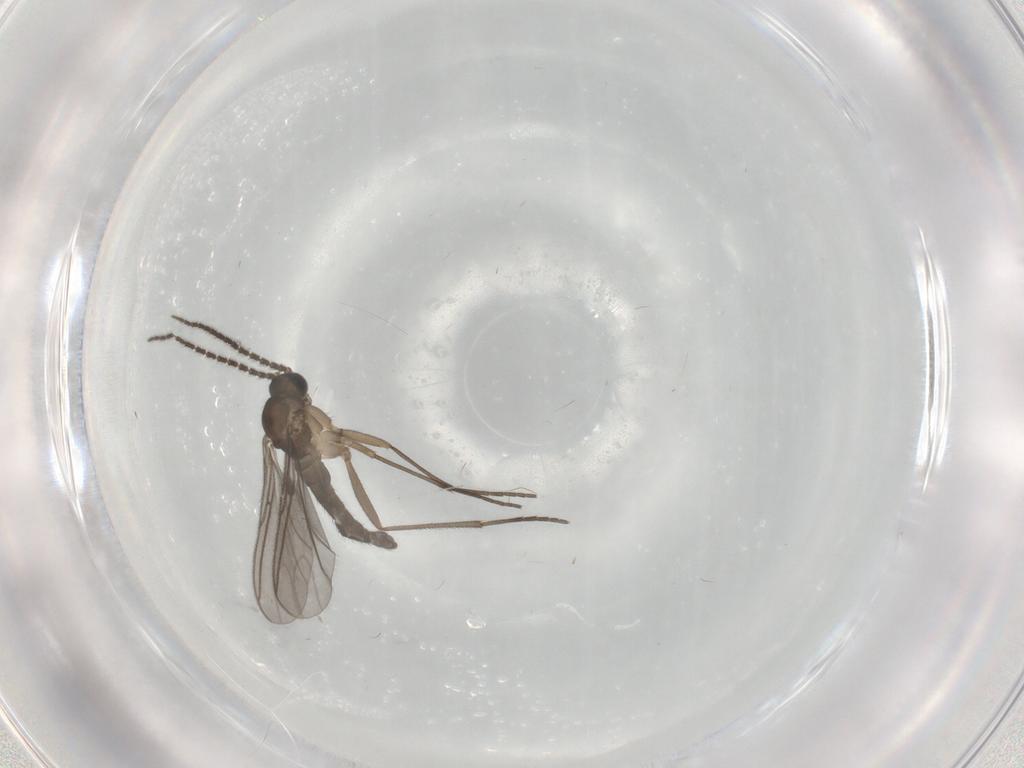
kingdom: Animalia
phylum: Arthropoda
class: Insecta
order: Diptera
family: Sciaridae
